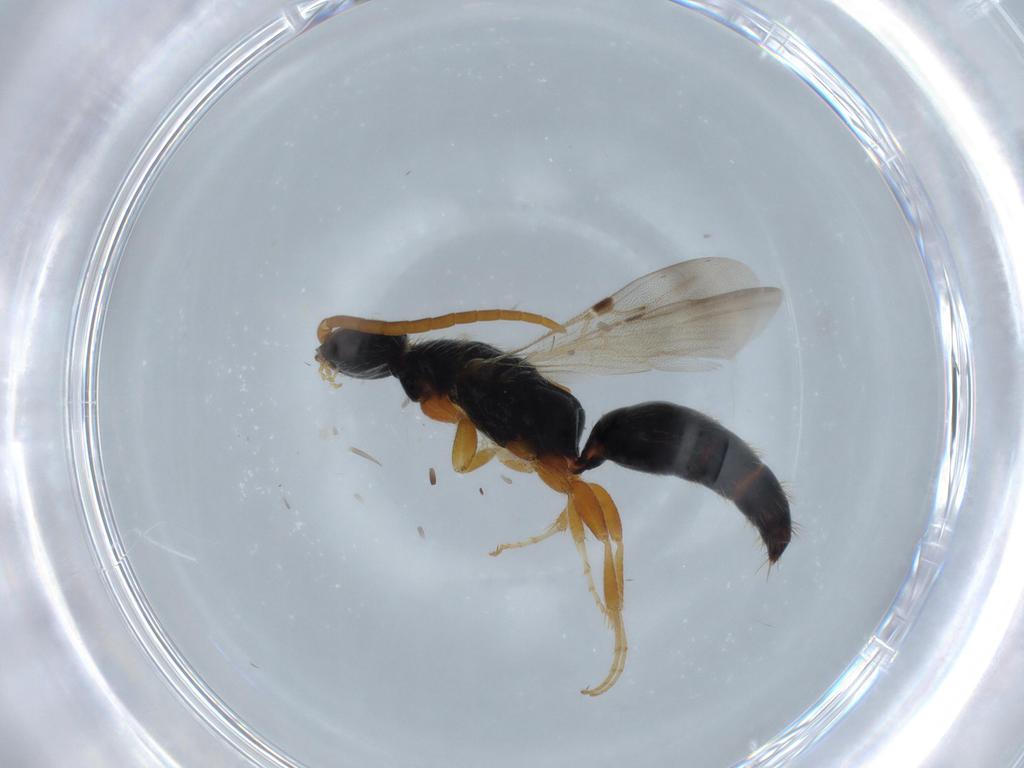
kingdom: Animalia
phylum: Arthropoda
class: Insecta
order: Hymenoptera
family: Bethylidae
